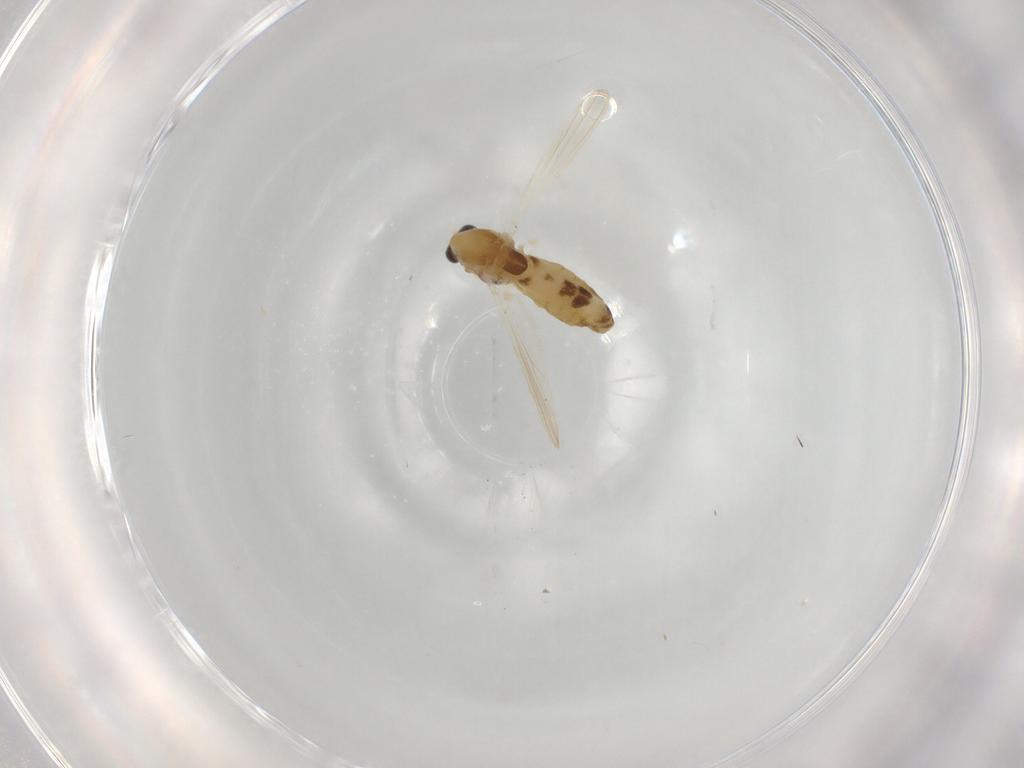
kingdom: Animalia
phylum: Arthropoda
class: Insecta
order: Diptera
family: Chironomidae
